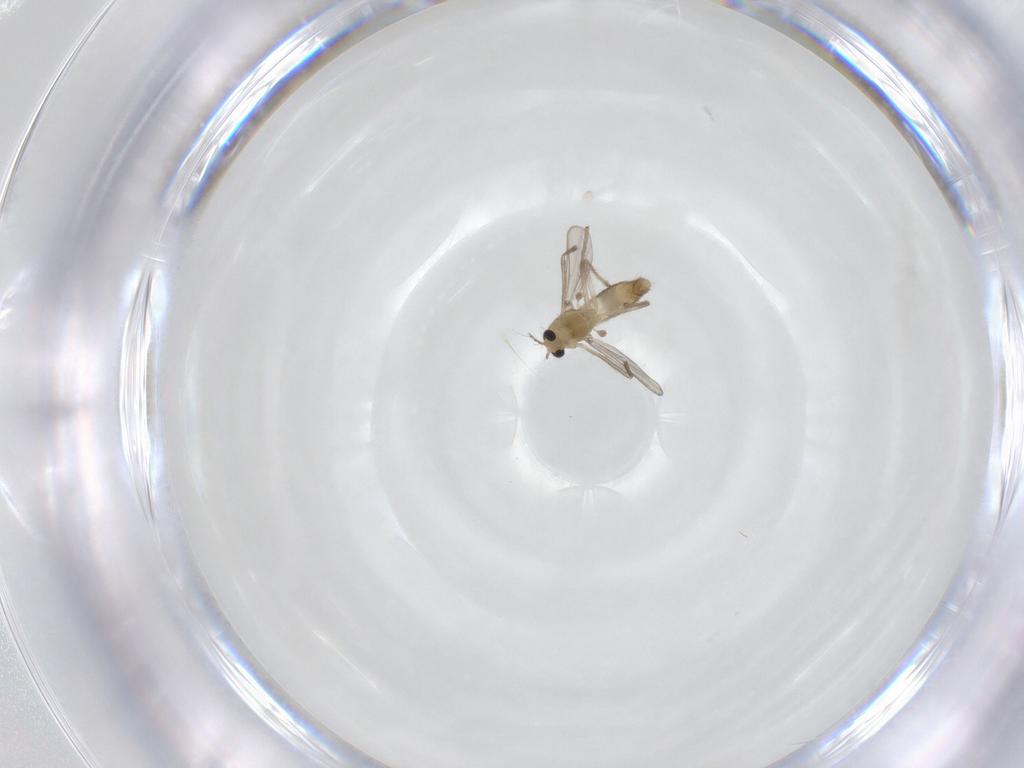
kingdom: Animalia
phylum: Arthropoda
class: Insecta
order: Diptera
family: Chironomidae
